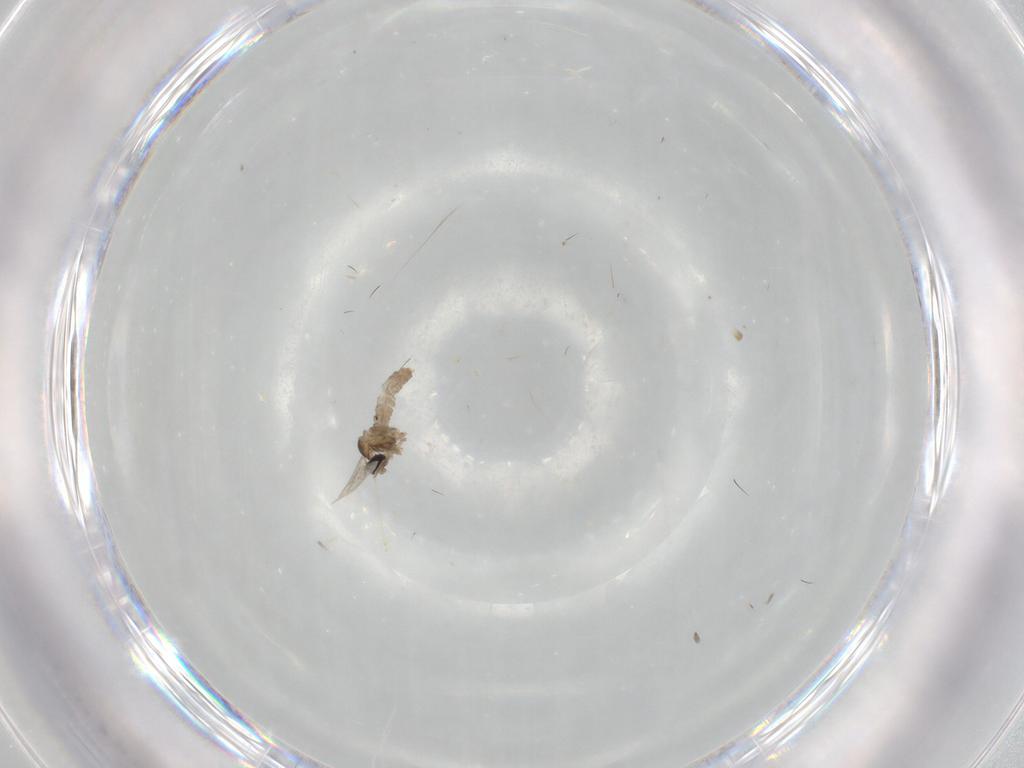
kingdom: Animalia
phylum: Arthropoda
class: Insecta
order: Diptera
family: Cecidomyiidae
